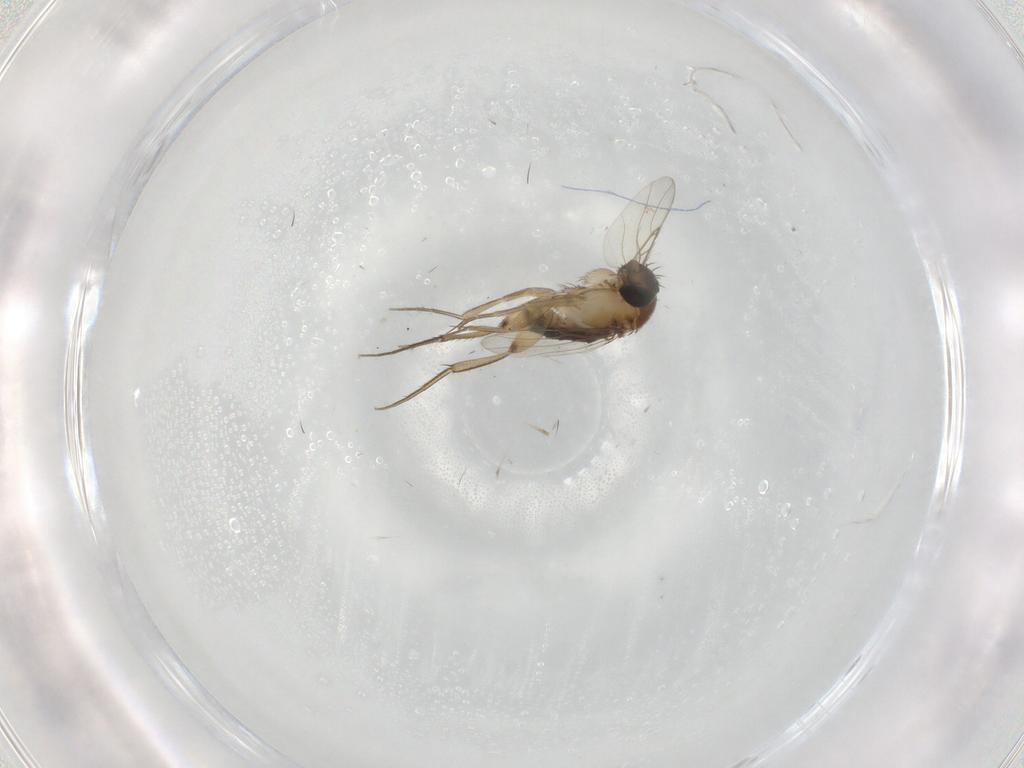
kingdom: Animalia
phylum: Arthropoda
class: Insecta
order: Diptera
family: Phoridae
